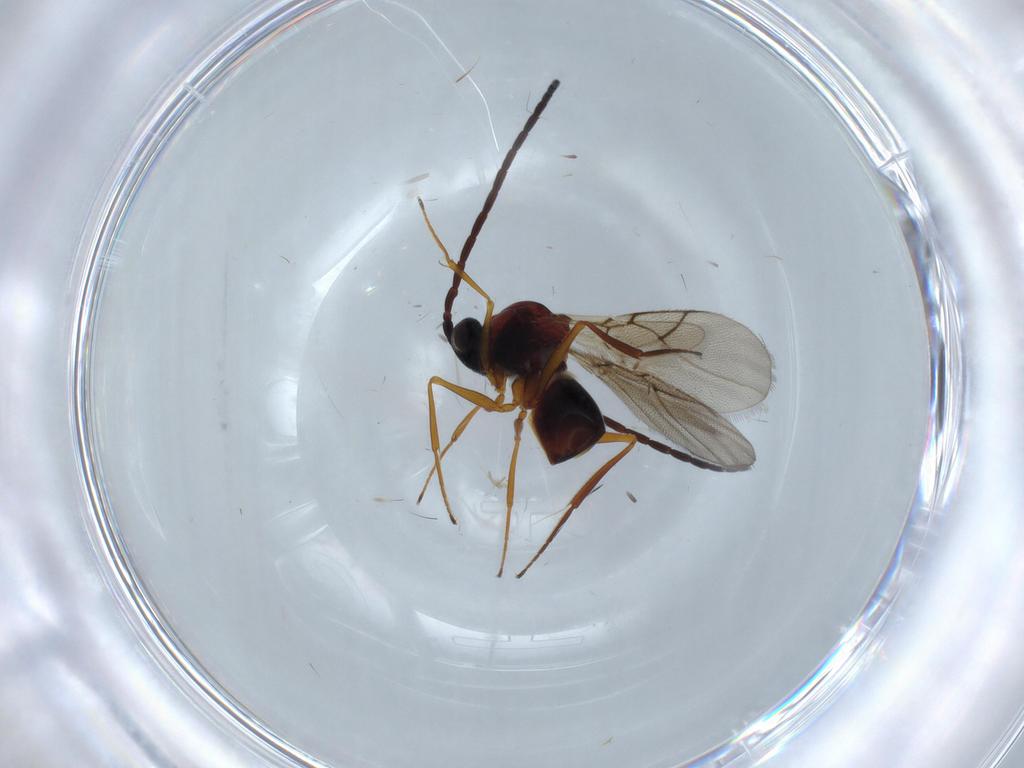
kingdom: Animalia
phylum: Arthropoda
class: Insecta
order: Hymenoptera
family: Figitidae
